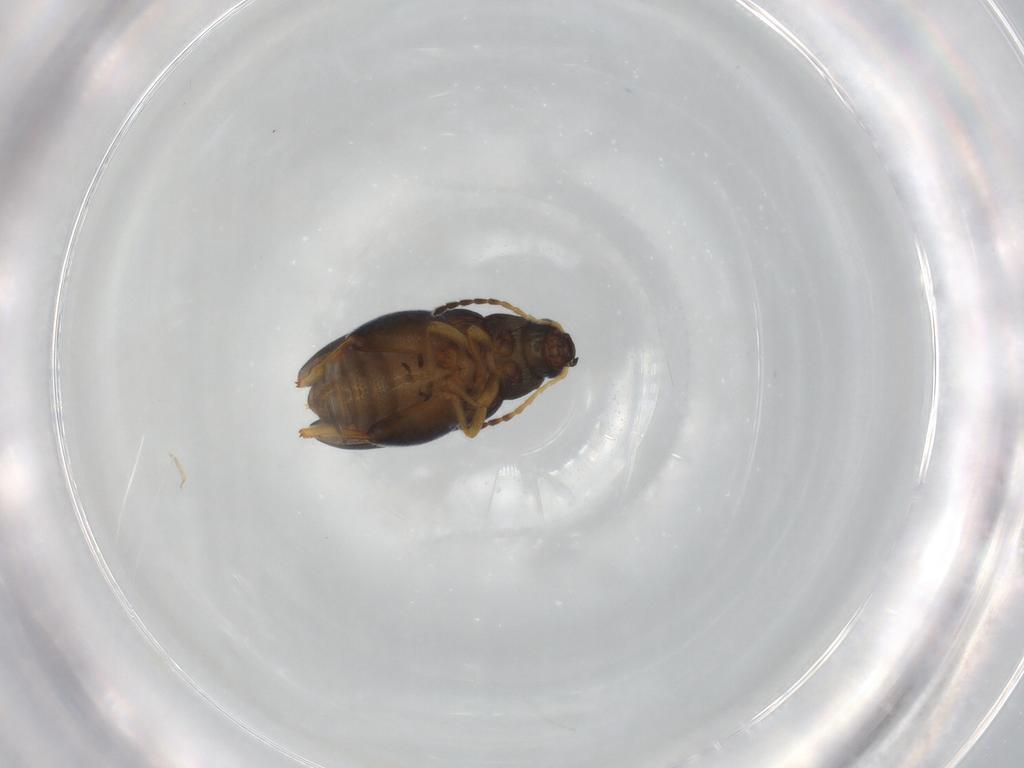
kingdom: Animalia
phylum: Arthropoda
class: Insecta
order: Coleoptera
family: Chrysomelidae
